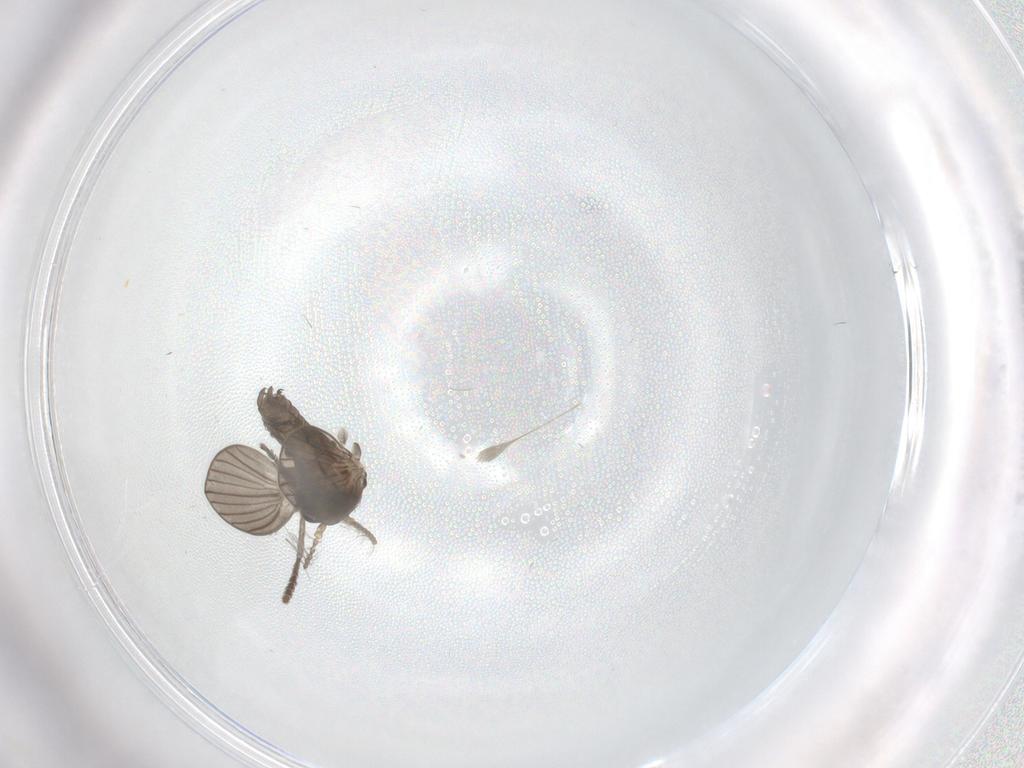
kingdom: Animalia
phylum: Arthropoda
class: Insecta
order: Diptera
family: Psychodidae
